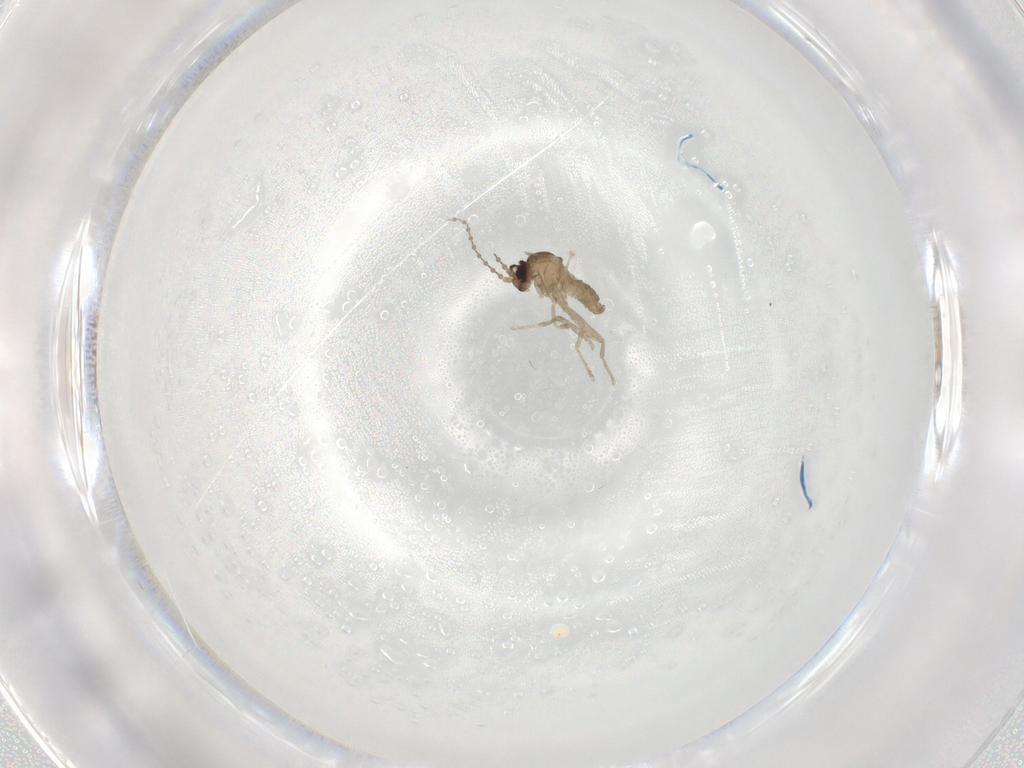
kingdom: Animalia
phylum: Arthropoda
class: Insecta
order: Diptera
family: Cecidomyiidae
